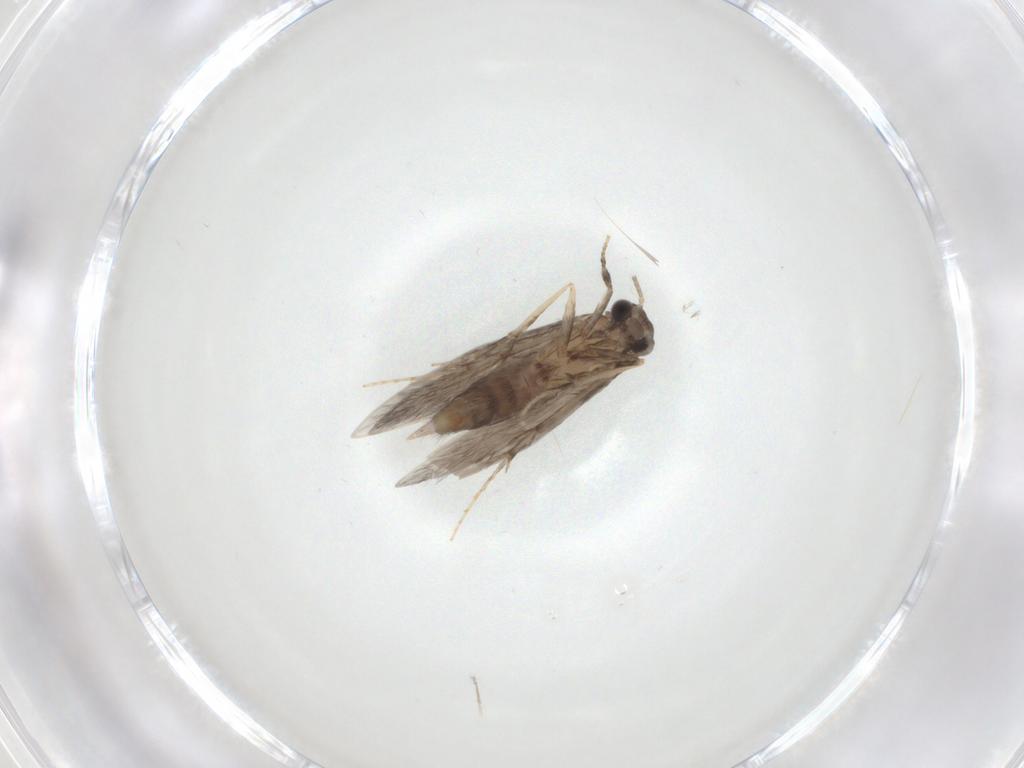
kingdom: Animalia
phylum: Arthropoda
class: Insecta
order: Trichoptera
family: Hydroptilidae
